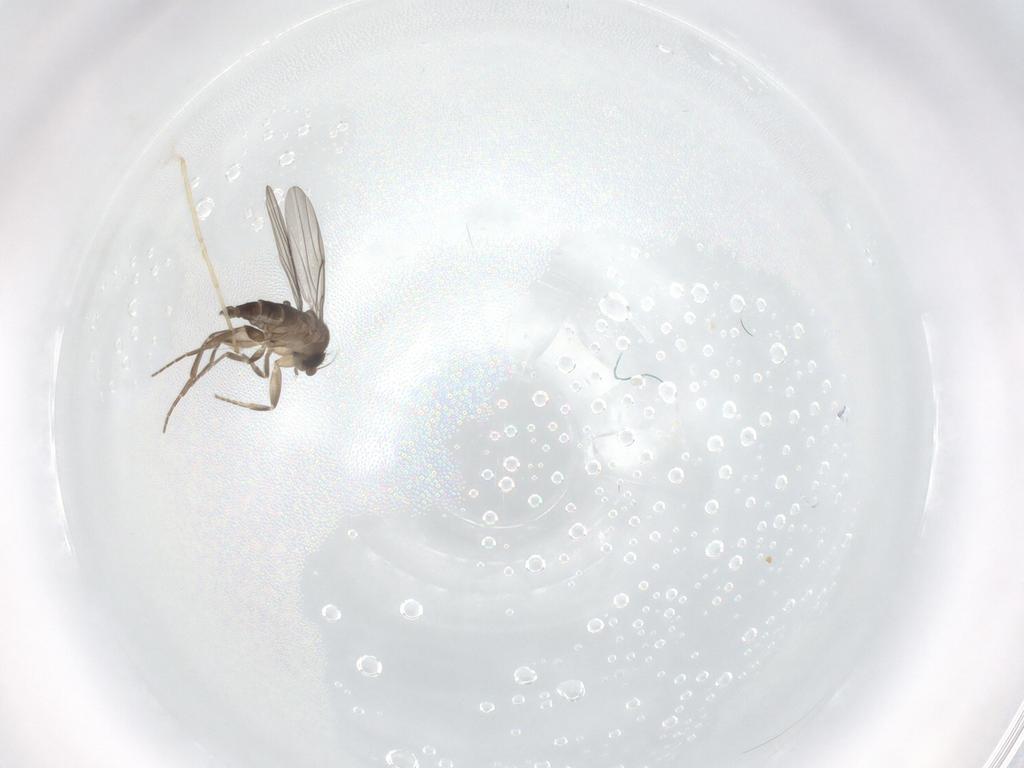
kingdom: Animalia
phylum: Arthropoda
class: Insecta
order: Diptera
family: Chironomidae
